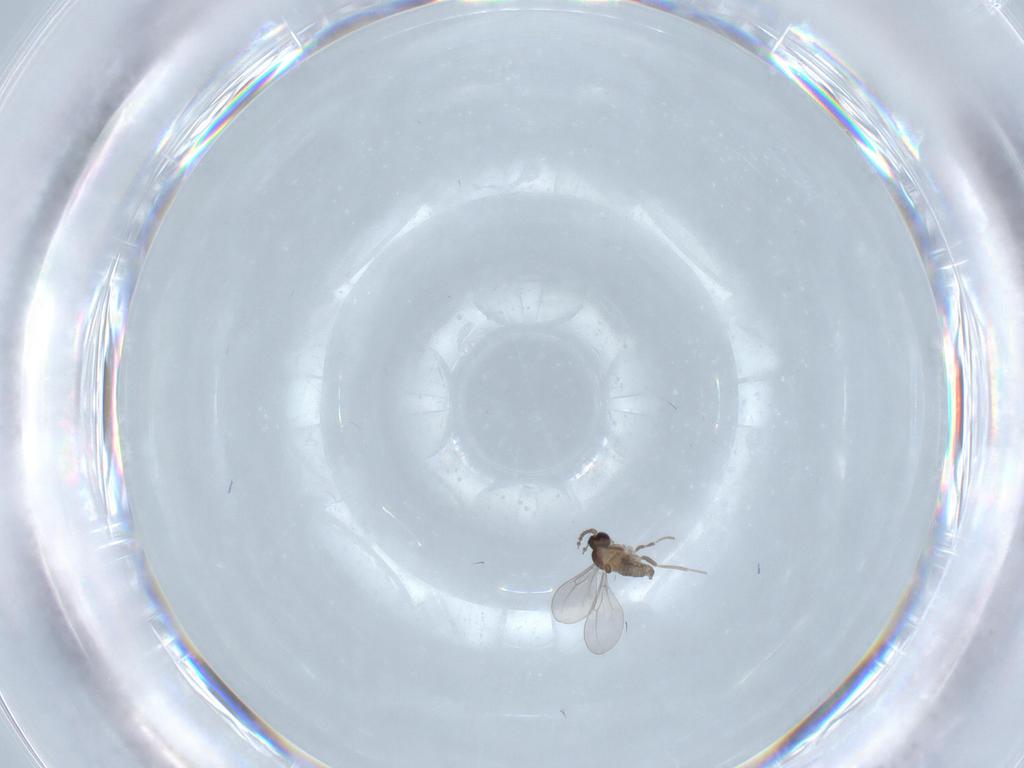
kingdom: Animalia
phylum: Arthropoda
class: Insecta
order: Diptera
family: Cecidomyiidae
